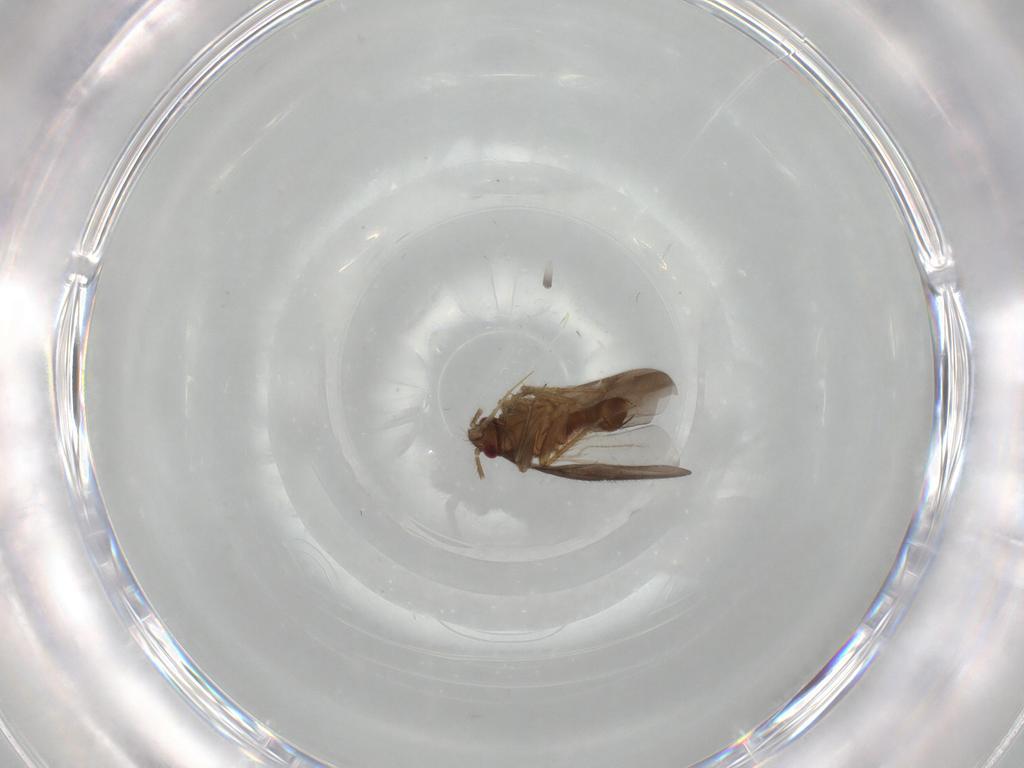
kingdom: Animalia
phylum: Arthropoda
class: Insecta
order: Hemiptera
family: Ceratocombidae
